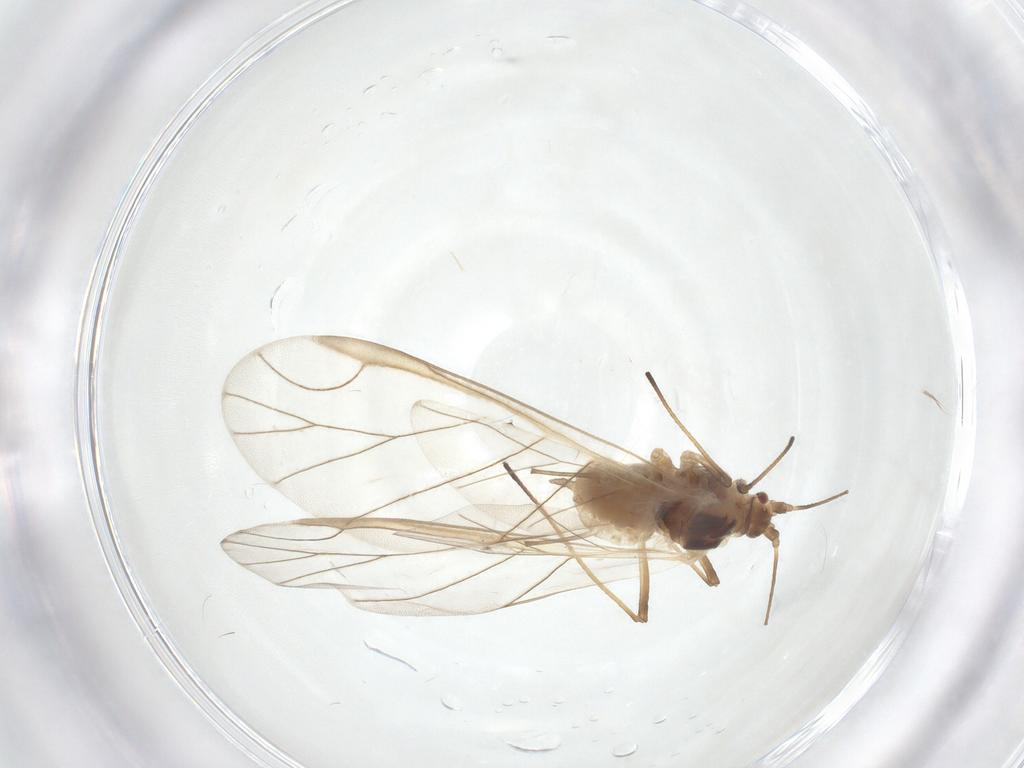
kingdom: Animalia
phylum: Arthropoda
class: Insecta
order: Hemiptera
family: Aphididae
